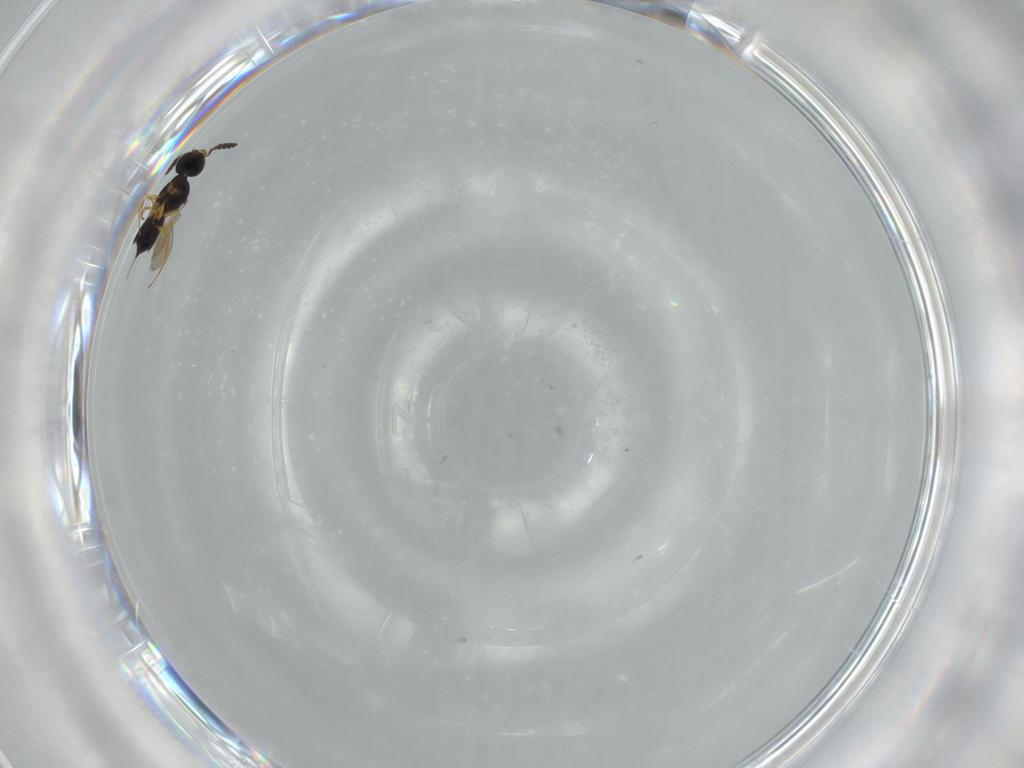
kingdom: Animalia
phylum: Arthropoda
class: Insecta
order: Hymenoptera
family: Scelionidae
